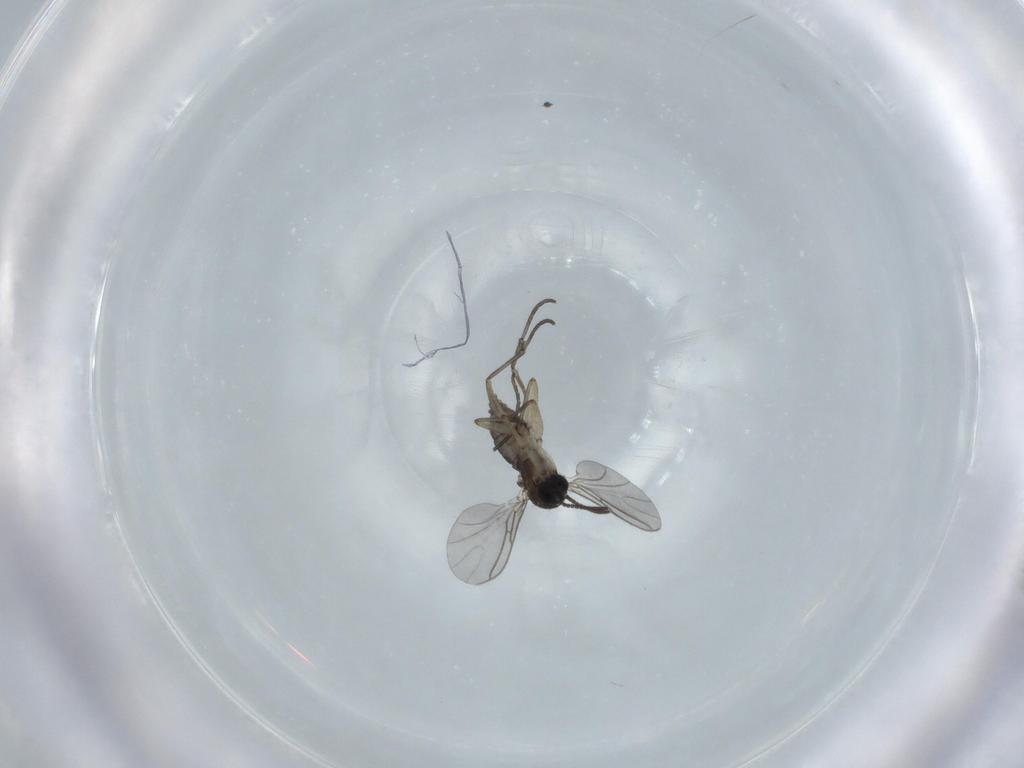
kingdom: Animalia
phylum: Arthropoda
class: Insecta
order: Diptera
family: Sciaridae
